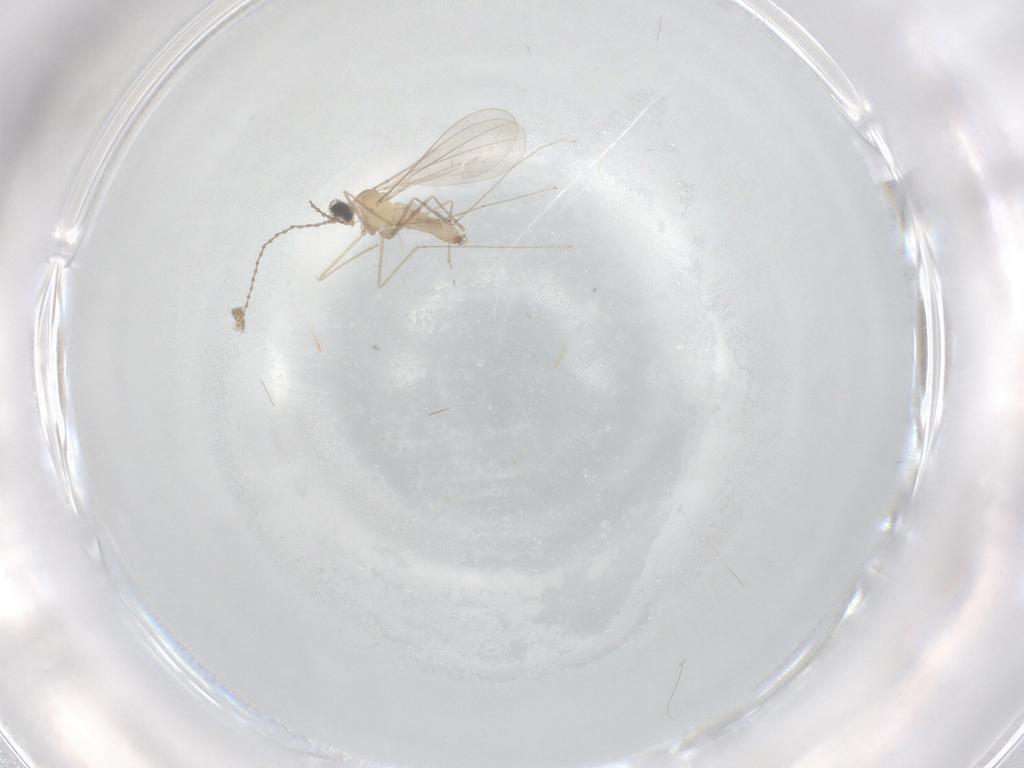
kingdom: Animalia
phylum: Arthropoda
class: Insecta
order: Diptera
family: Cecidomyiidae
